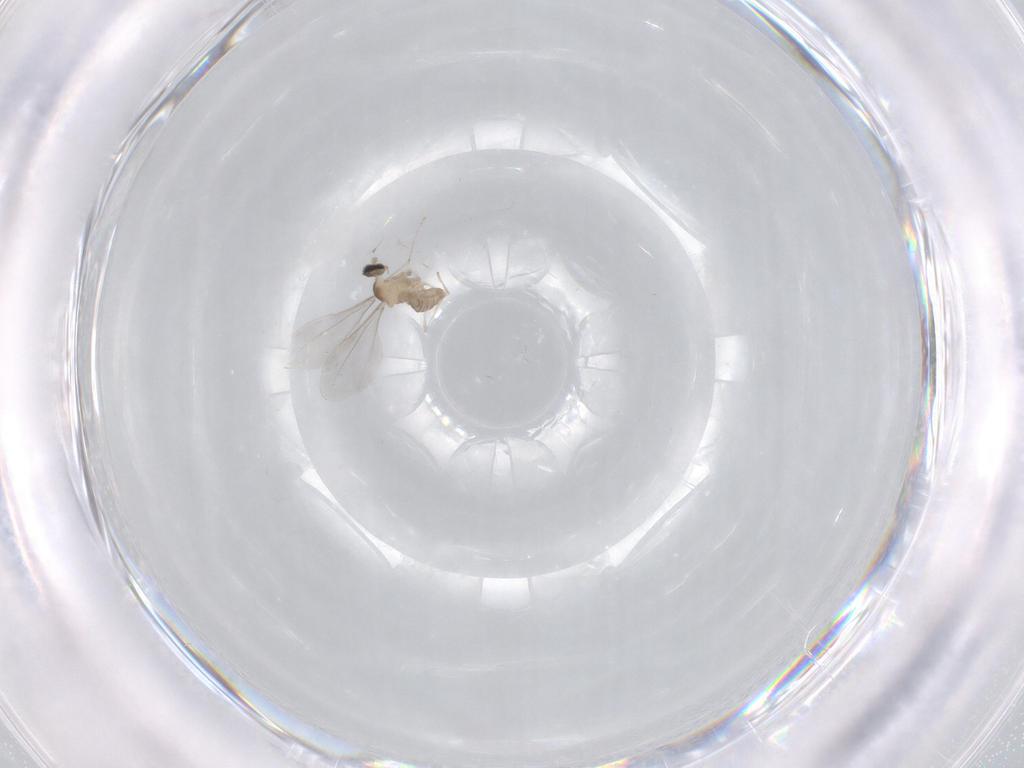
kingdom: Animalia
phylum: Arthropoda
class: Insecta
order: Diptera
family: Cecidomyiidae
